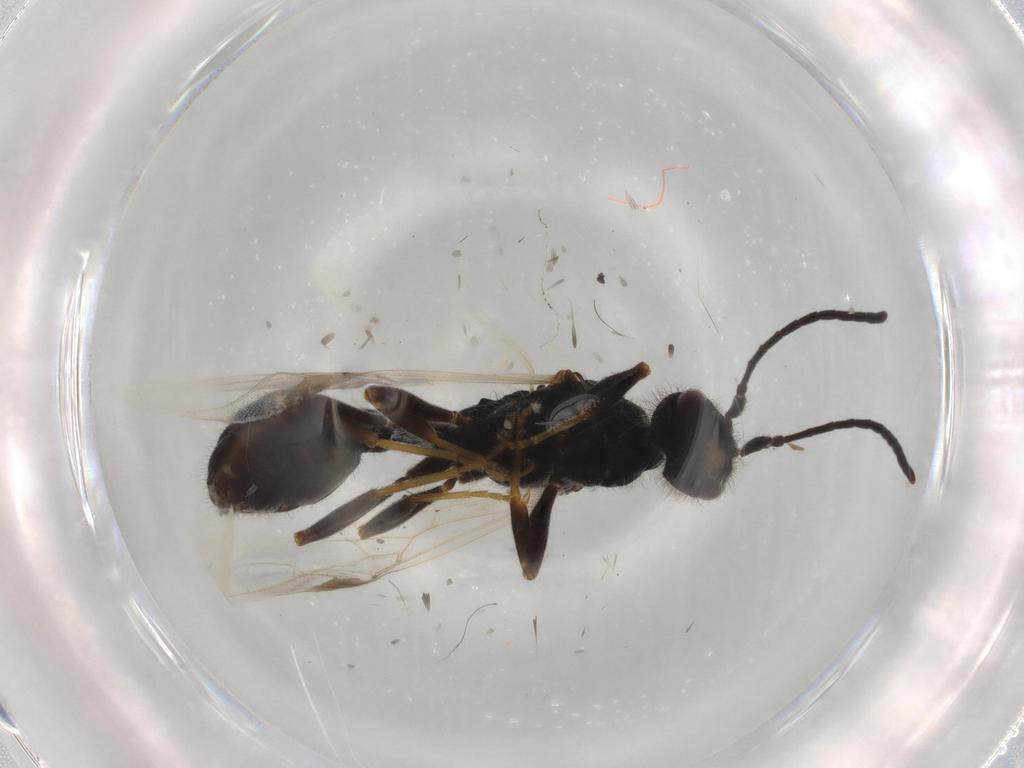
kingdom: Animalia
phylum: Arthropoda
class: Insecta
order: Hymenoptera
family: Formicidae
